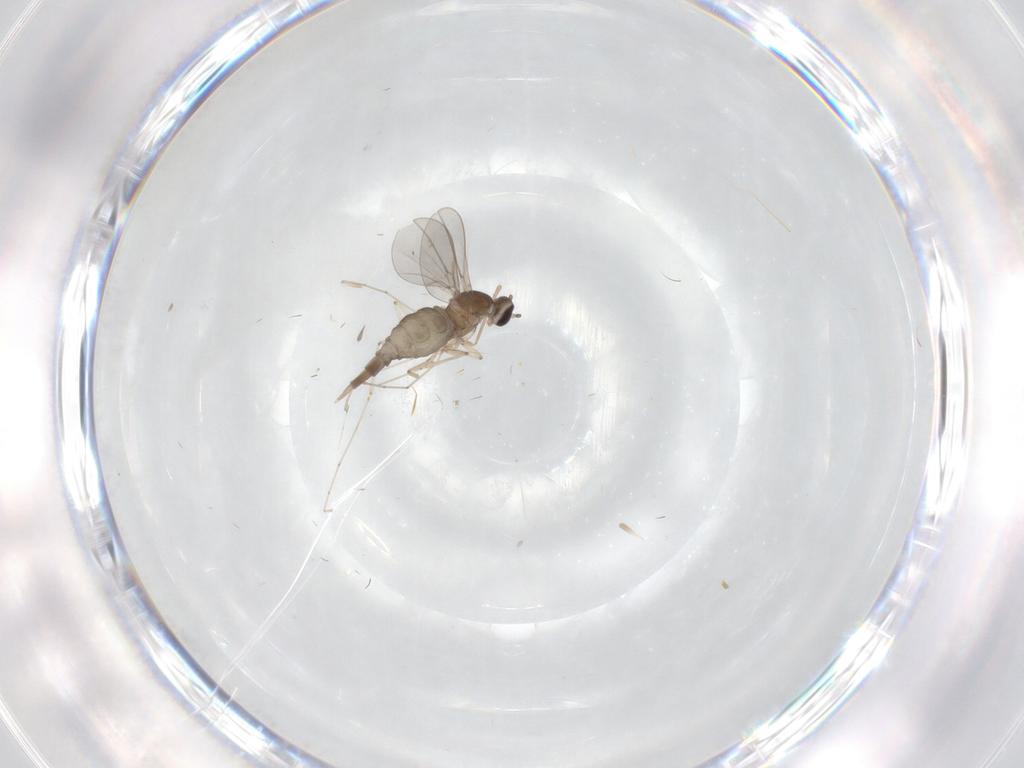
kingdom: Animalia
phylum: Arthropoda
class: Insecta
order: Diptera
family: Cecidomyiidae
